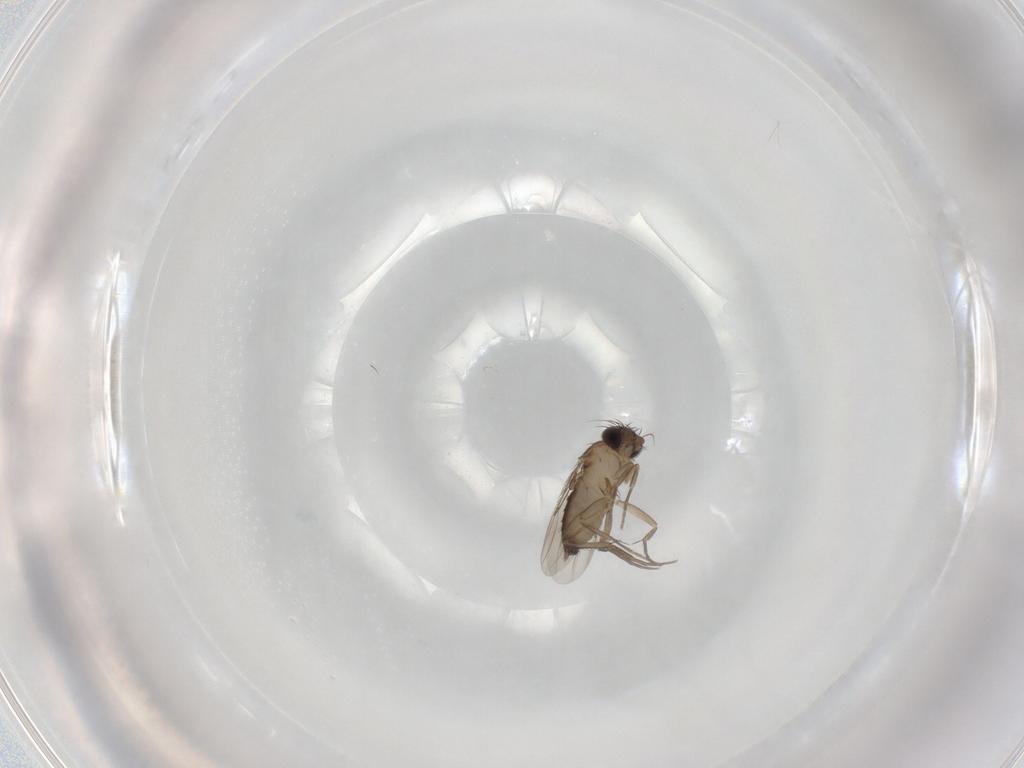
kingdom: Animalia
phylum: Arthropoda
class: Insecta
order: Diptera
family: Phoridae
